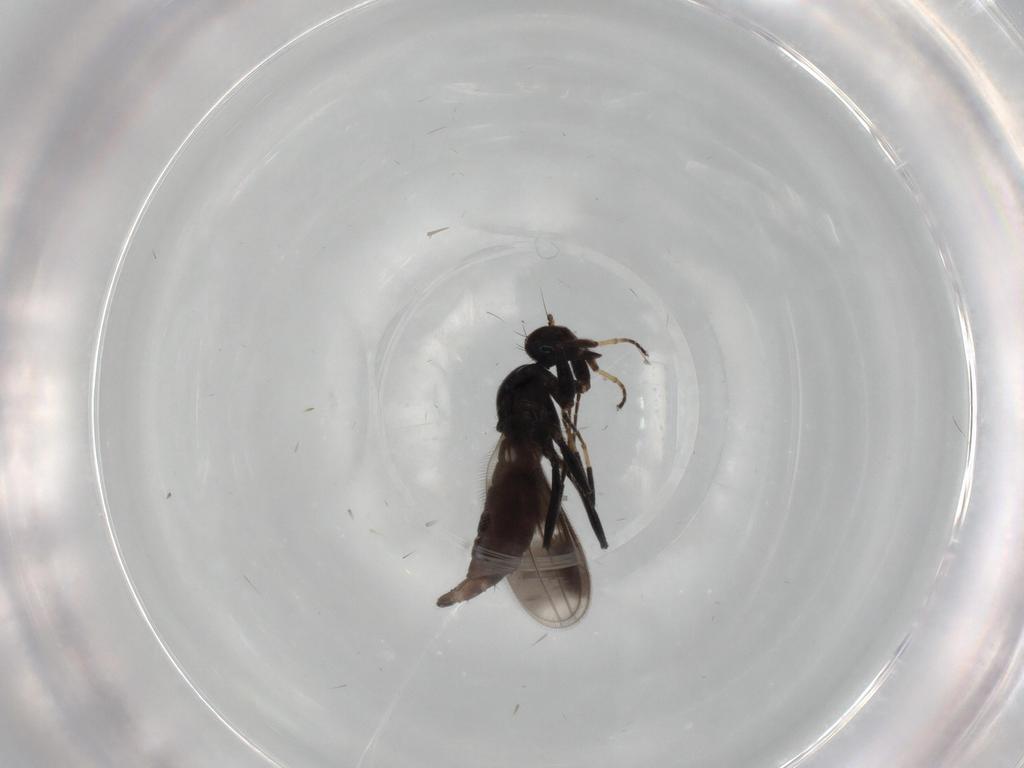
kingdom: Animalia
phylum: Arthropoda
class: Insecta
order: Diptera
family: Hybotidae
